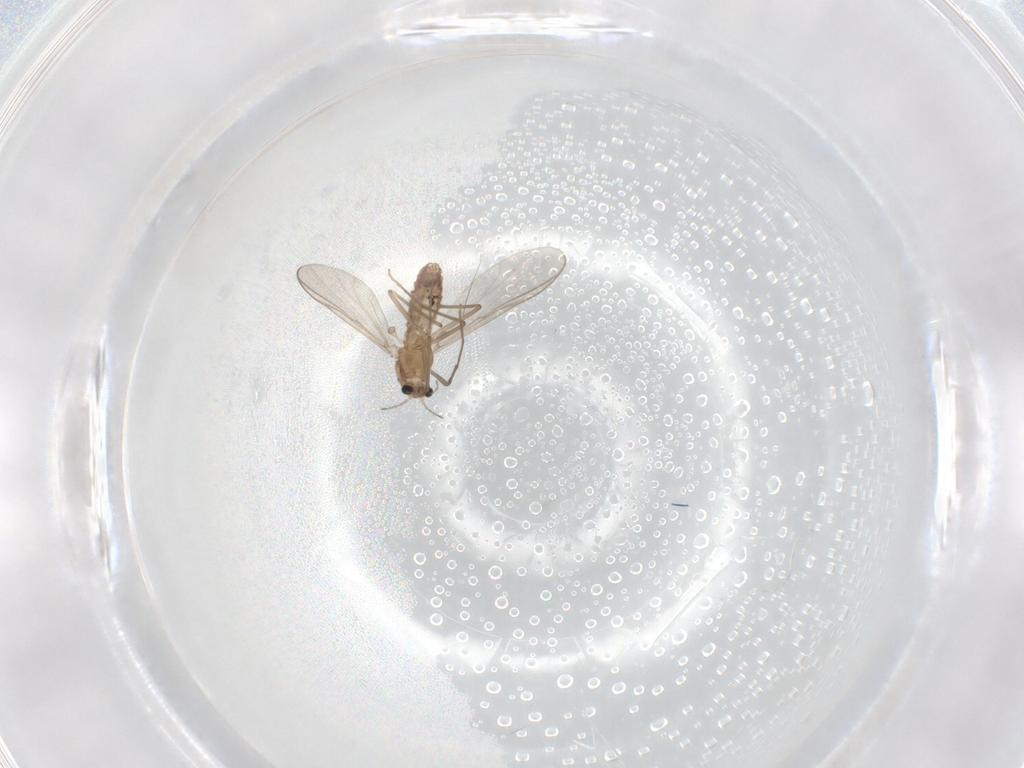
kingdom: Animalia
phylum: Arthropoda
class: Insecta
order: Diptera
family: Chironomidae
